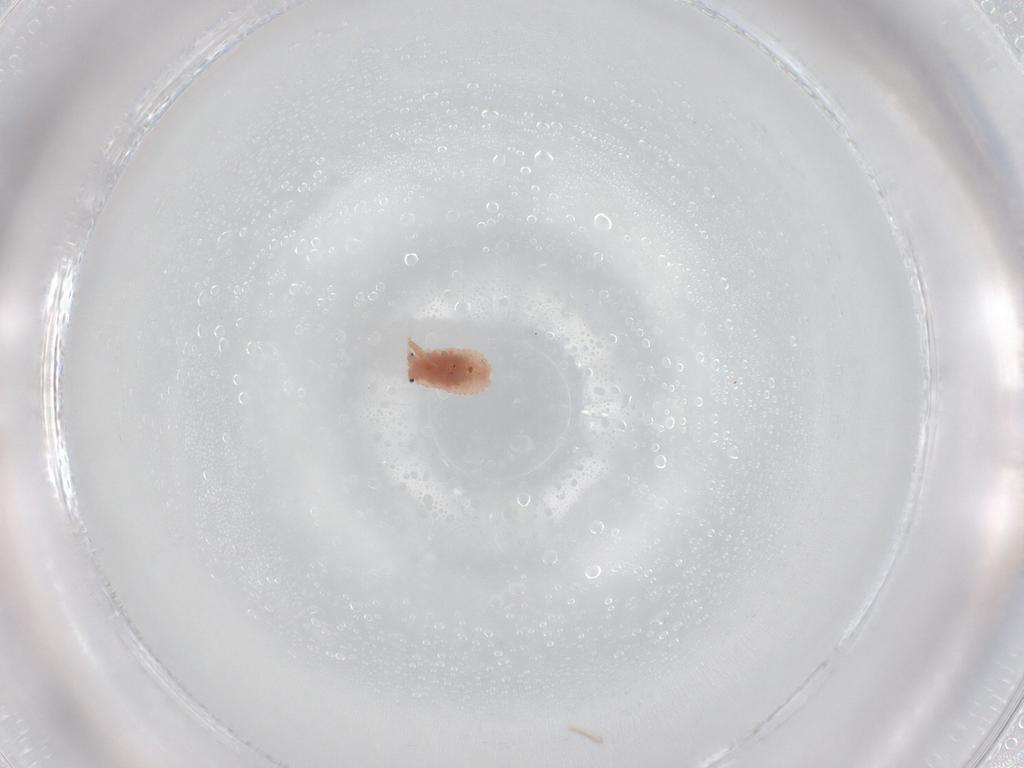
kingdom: Animalia
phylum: Arthropoda
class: Insecta
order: Hemiptera
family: Coccoidea_incertae_sedis
